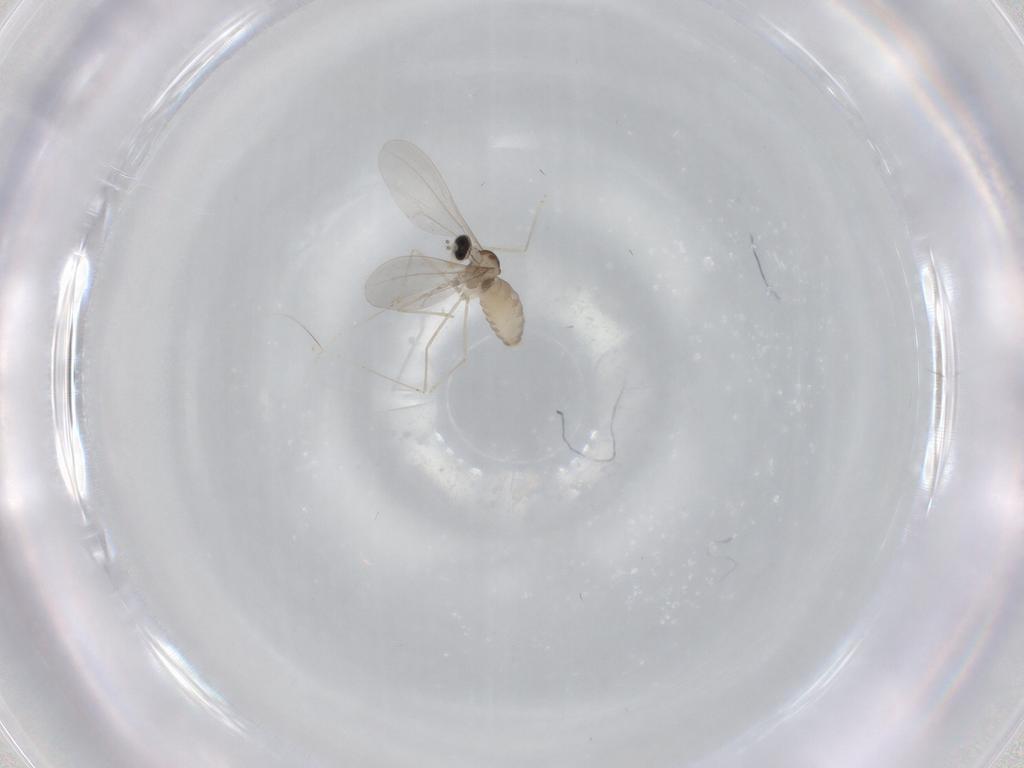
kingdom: Animalia
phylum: Arthropoda
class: Insecta
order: Diptera
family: Cecidomyiidae
